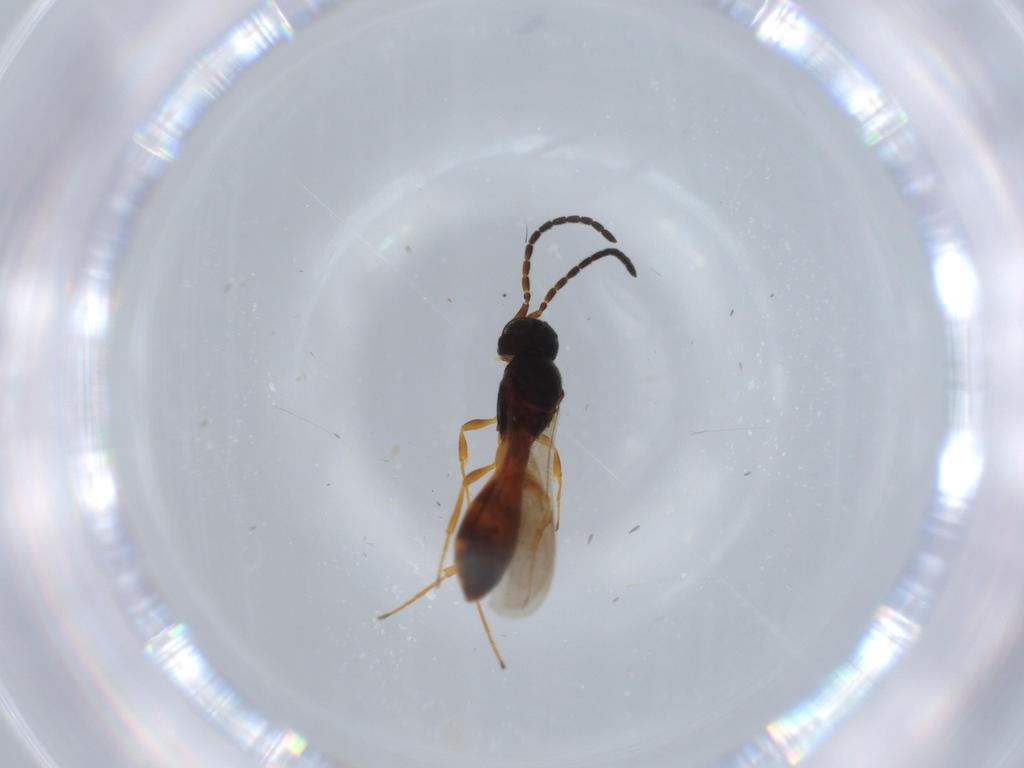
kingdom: Animalia
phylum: Arthropoda
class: Insecta
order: Hymenoptera
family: Scelionidae
